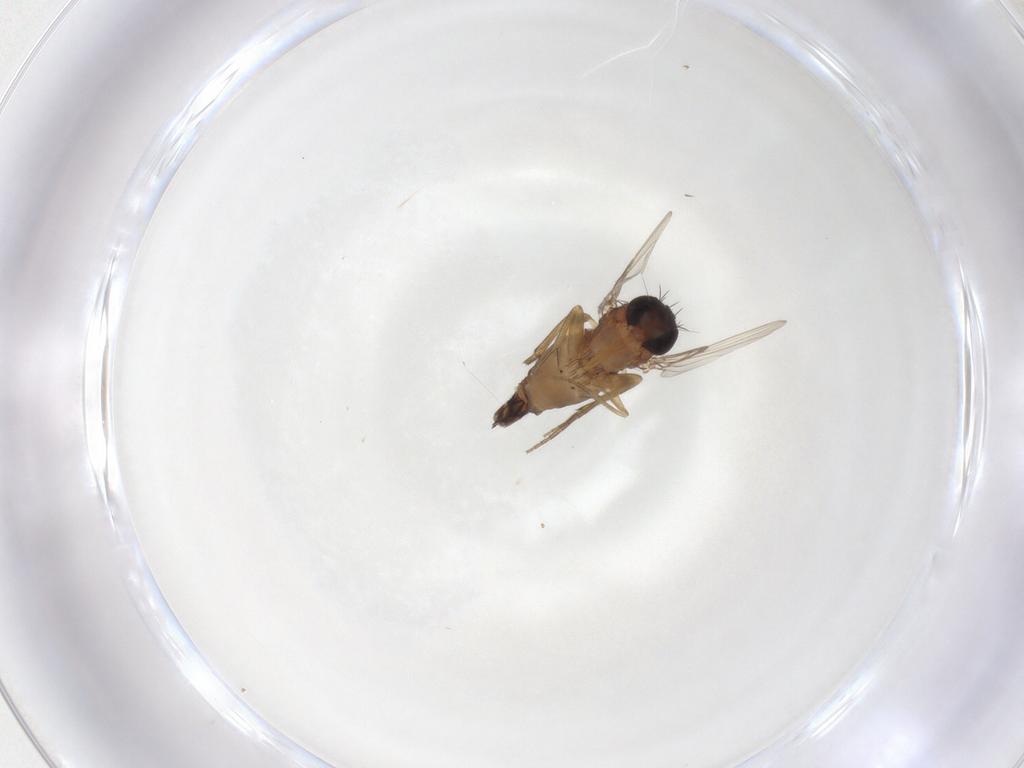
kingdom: Animalia
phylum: Arthropoda
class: Insecta
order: Diptera
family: Phoridae
